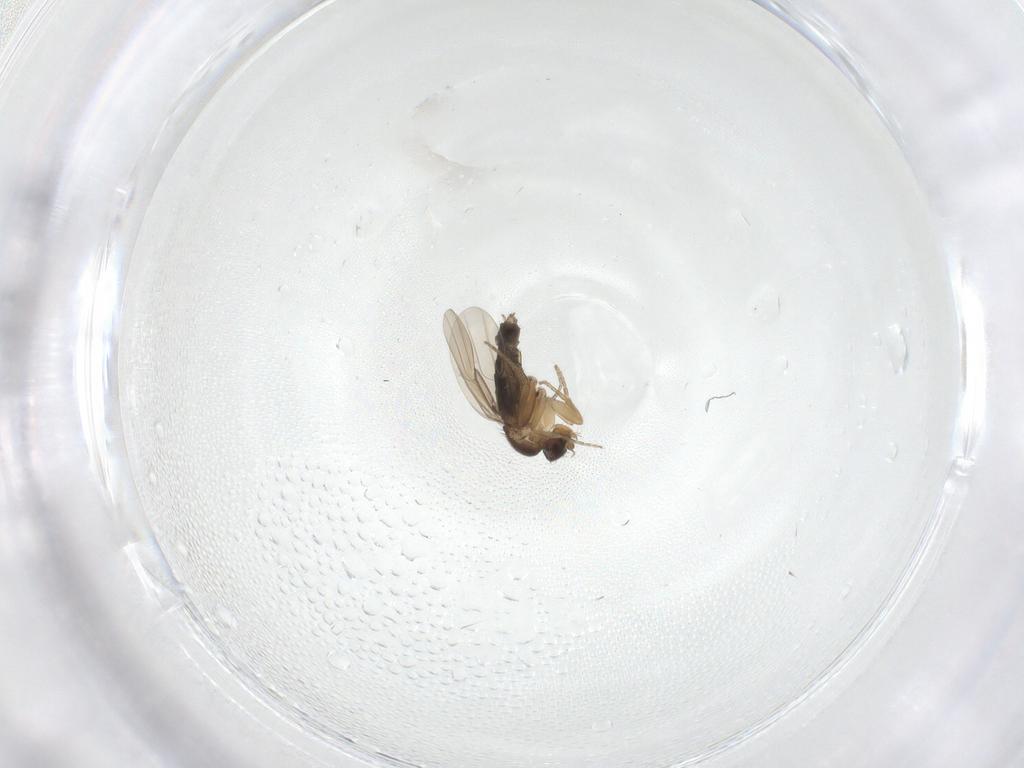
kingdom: Animalia
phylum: Arthropoda
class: Insecta
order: Diptera
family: Phoridae
